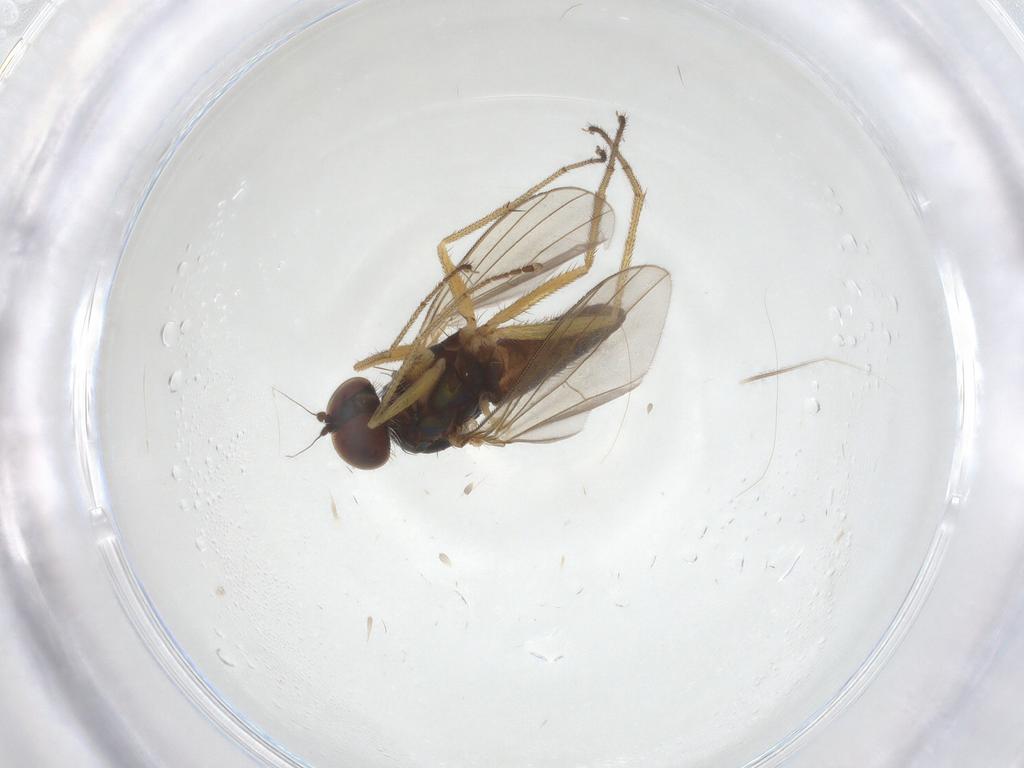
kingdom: Animalia
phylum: Arthropoda
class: Insecta
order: Diptera
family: Dolichopodidae
